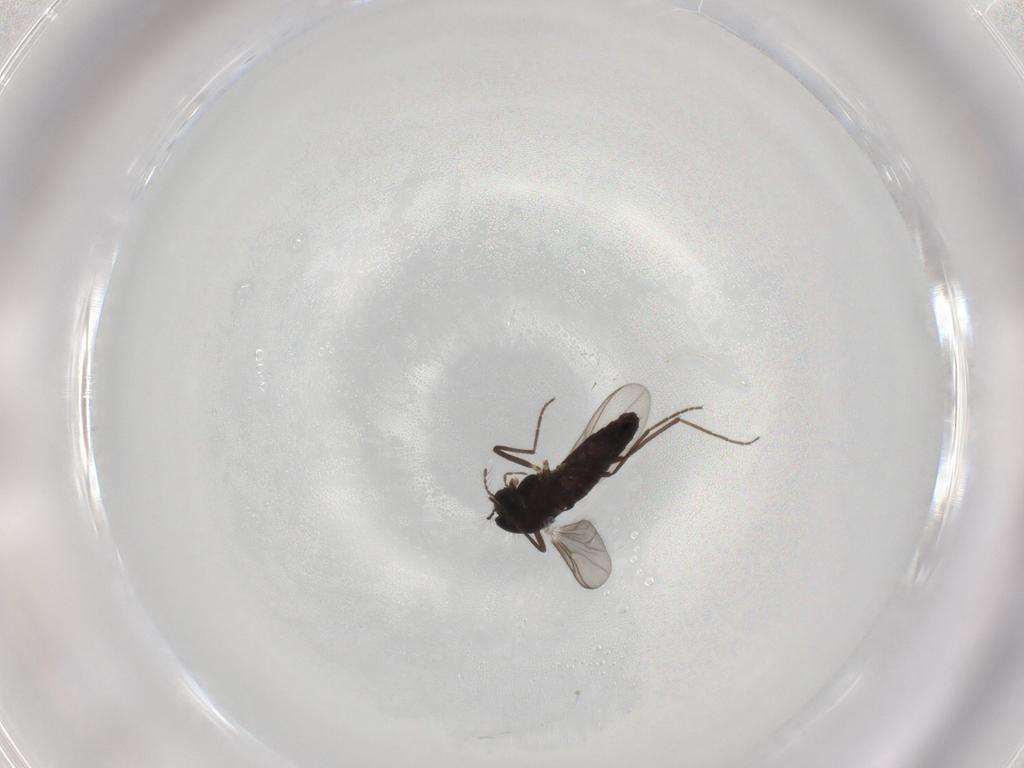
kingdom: Animalia
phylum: Arthropoda
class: Insecta
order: Diptera
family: Chironomidae
